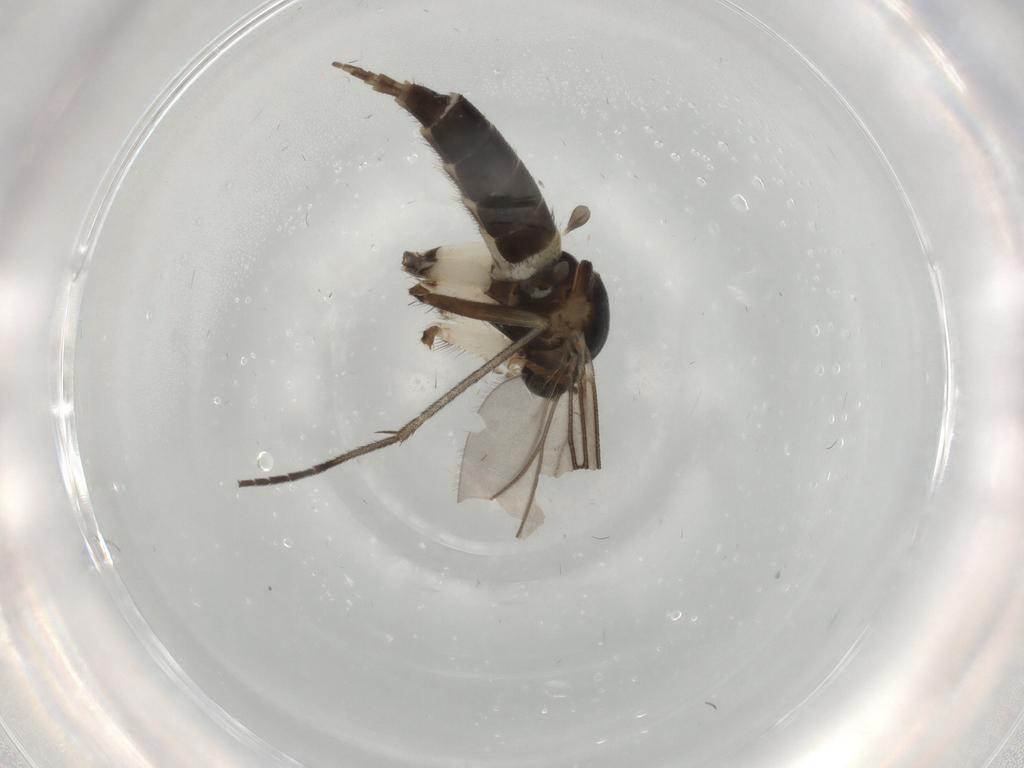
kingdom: Animalia
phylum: Arthropoda
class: Insecta
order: Diptera
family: Sciaridae
